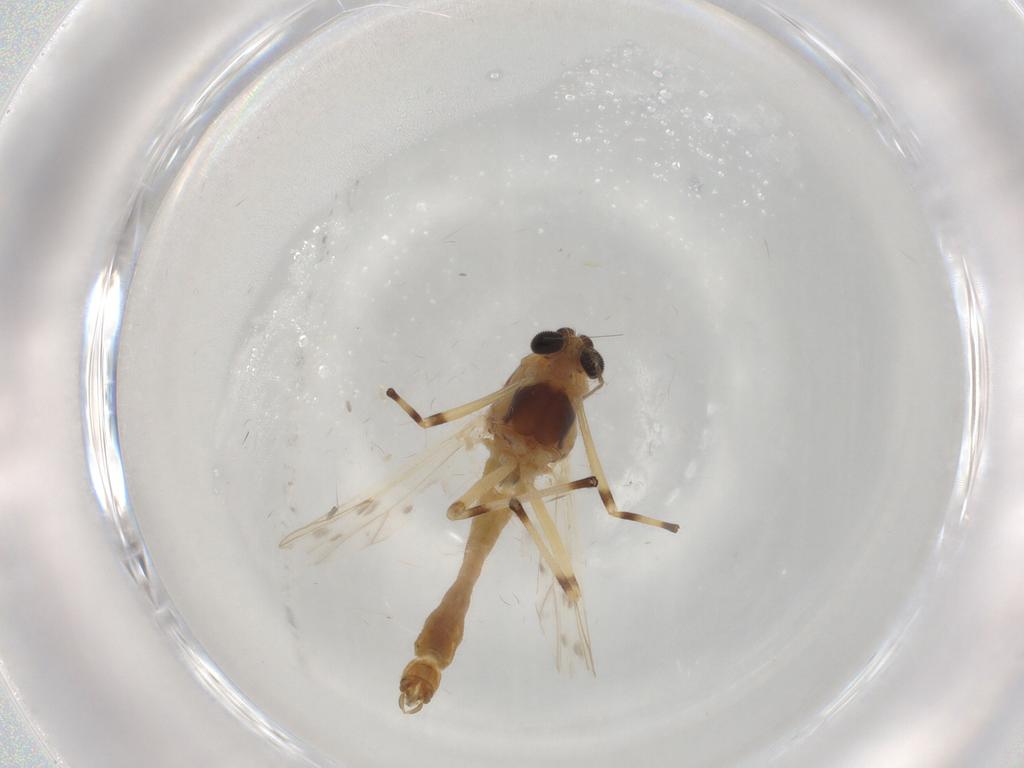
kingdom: Animalia
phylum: Arthropoda
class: Insecta
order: Diptera
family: Chironomidae
